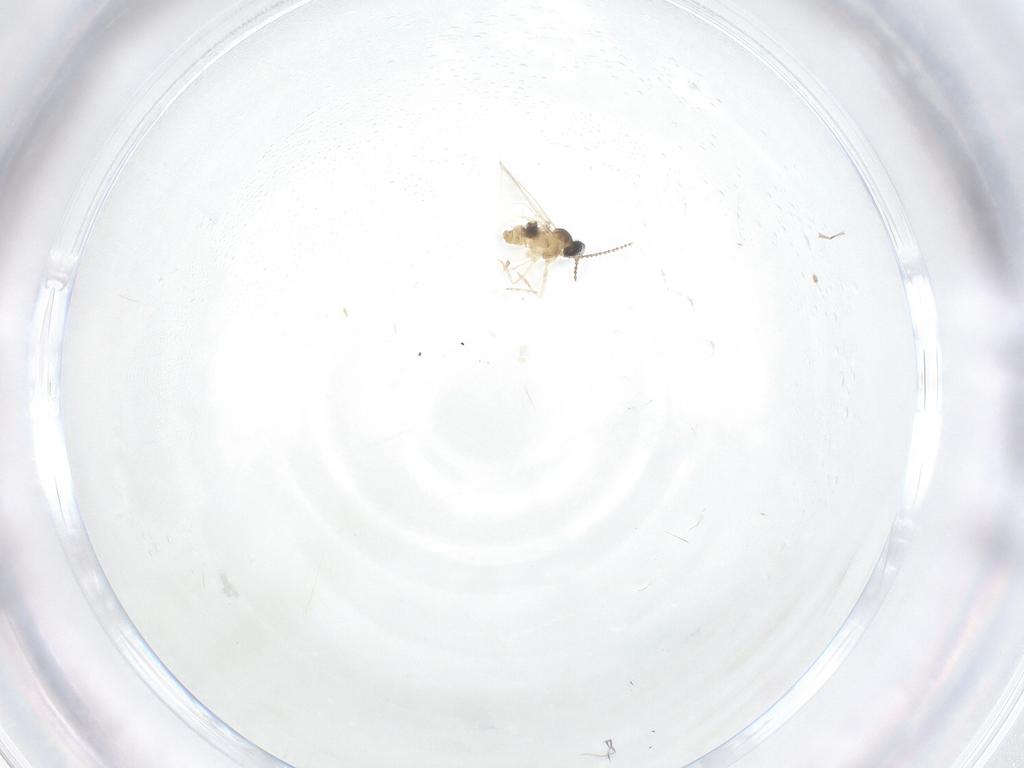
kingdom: Animalia
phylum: Arthropoda
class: Insecta
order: Diptera
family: Cecidomyiidae
